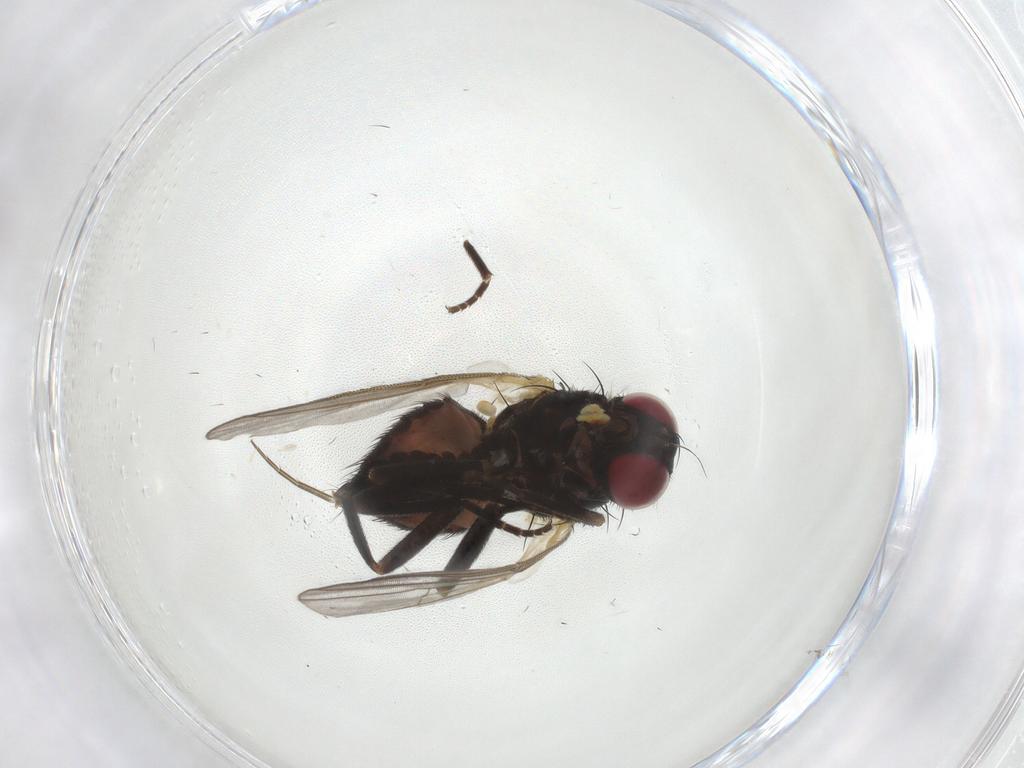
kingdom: Animalia
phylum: Arthropoda
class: Insecta
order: Diptera
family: Agromyzidae
